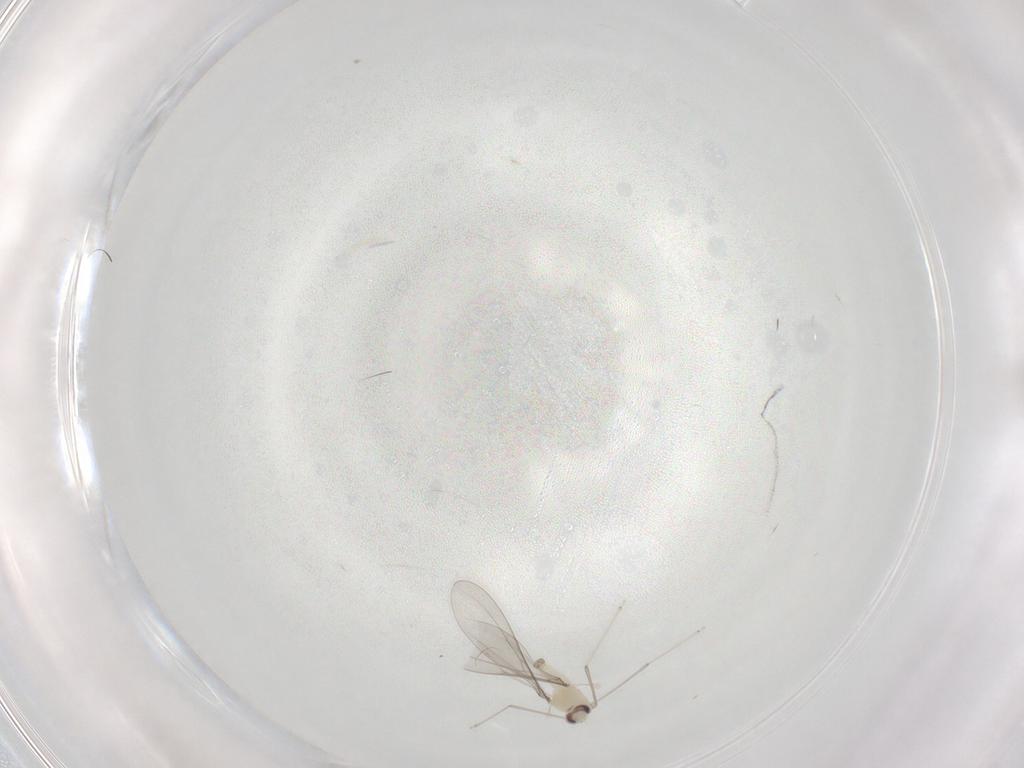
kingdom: Animalia
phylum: Arthropoda
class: Insecta
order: Diptera
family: Cecidomyiidae
